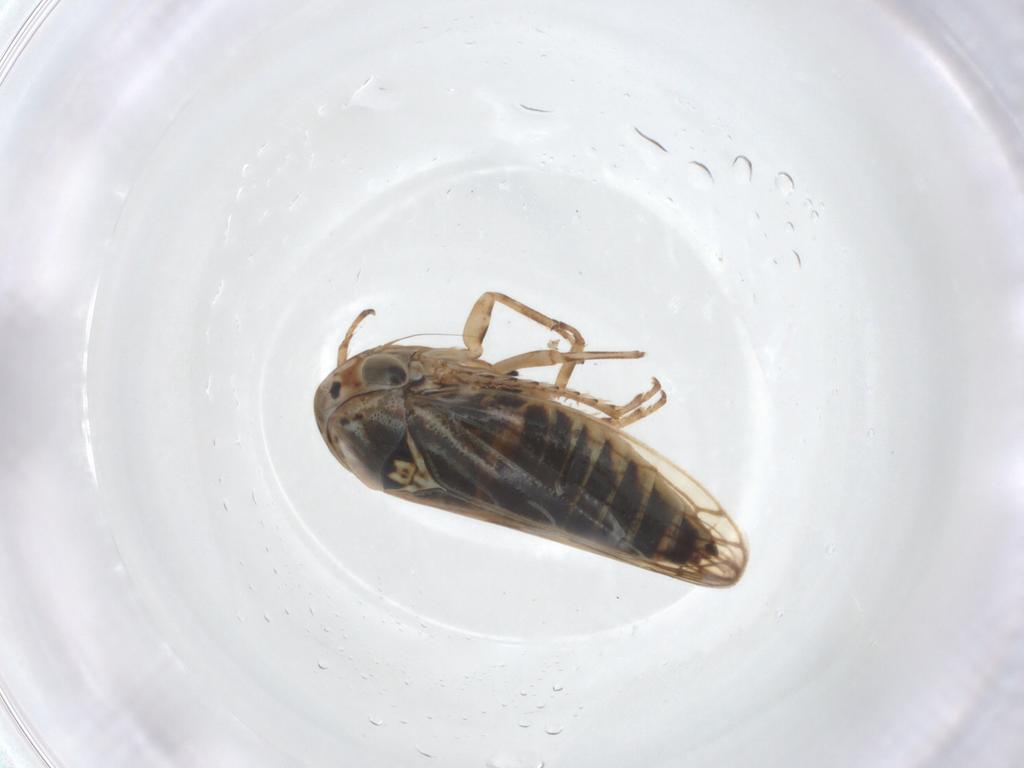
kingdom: Animalia
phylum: Arthropoda
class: Insecta
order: Hemiptera
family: Cicadellidae
